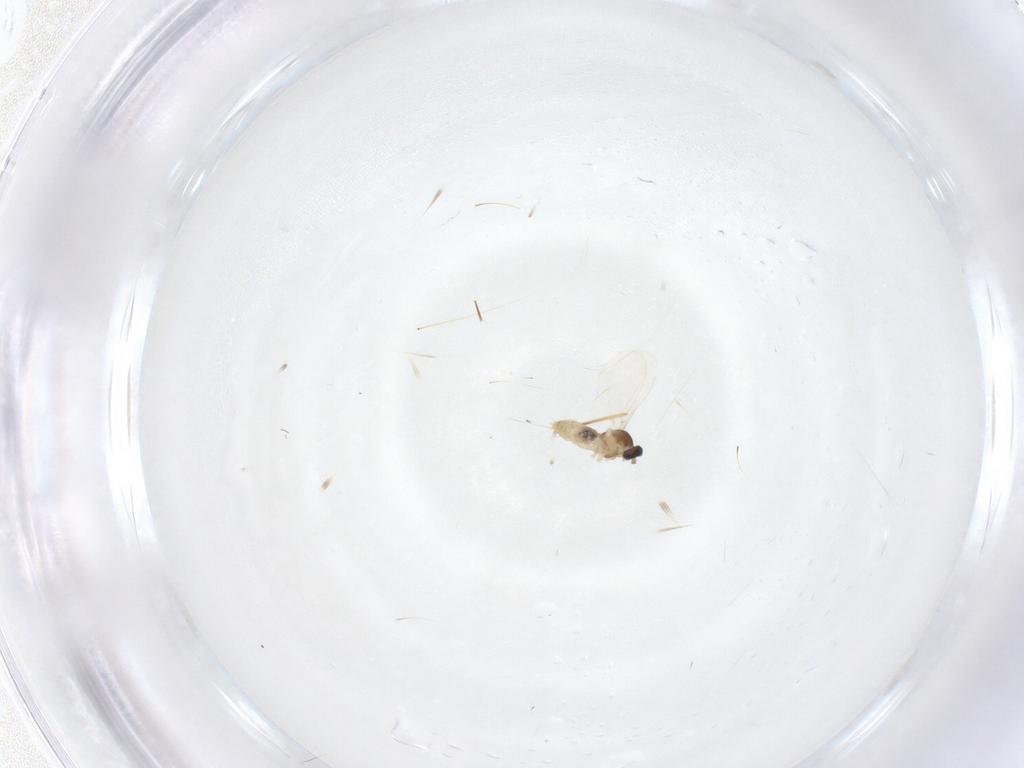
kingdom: Animalia
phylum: Arthropoda
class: Insecta
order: Diptera
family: Cecidomyiidae
